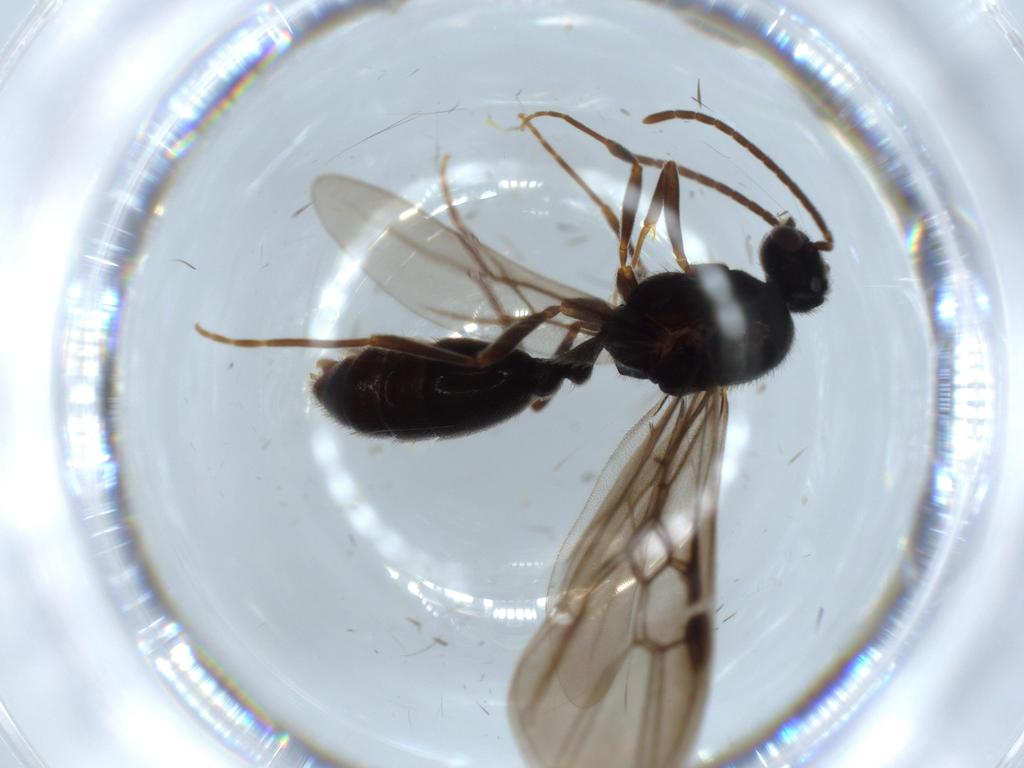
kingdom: Animalia
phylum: Arthropoda
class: Insecta
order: Hymenoptera
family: Formicidae
